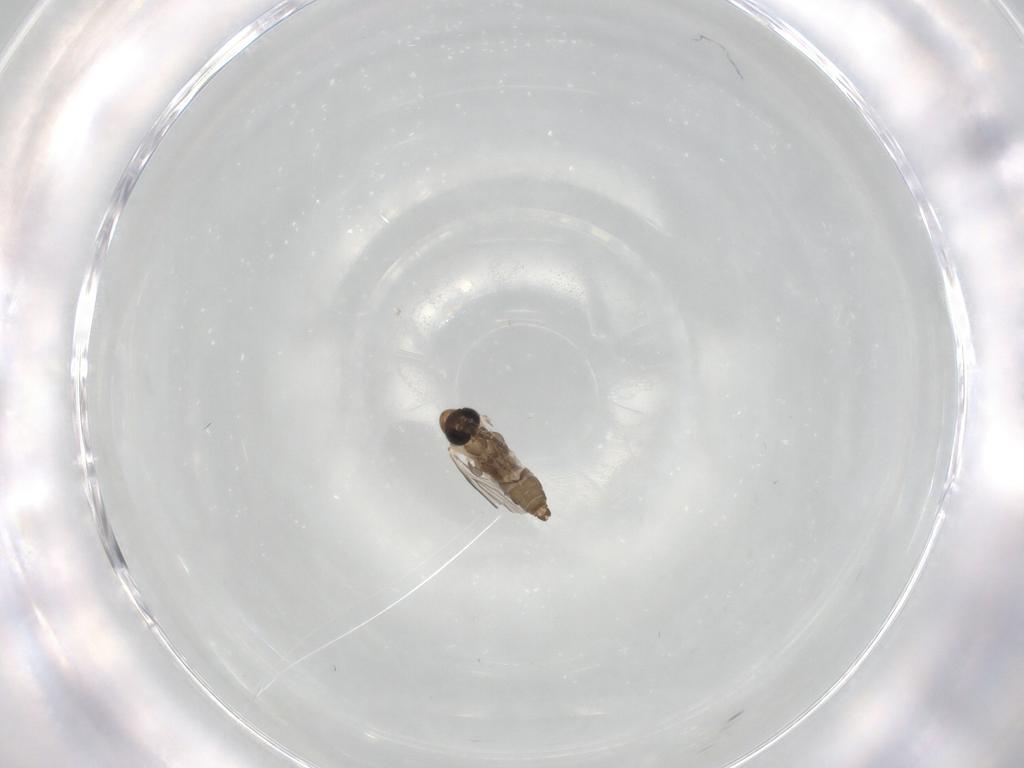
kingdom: Animalia
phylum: Arthropoda
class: Insecta
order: Diptera
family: Psychodidae
